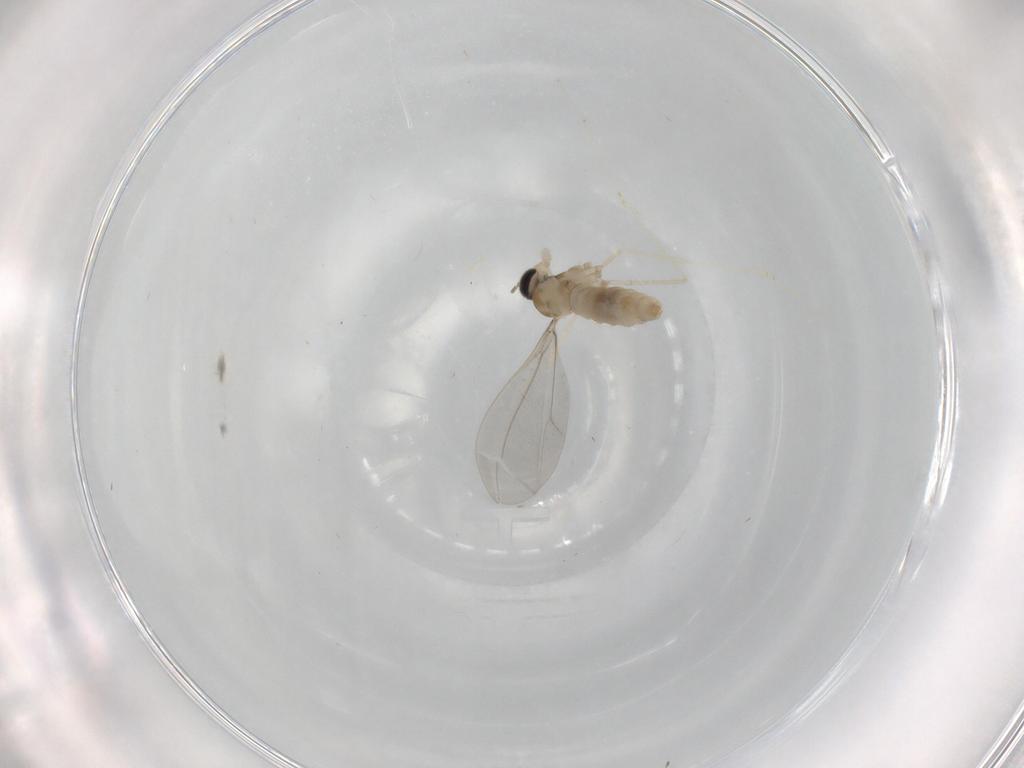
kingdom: Animalia
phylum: Arthropoda
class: Insecta
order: Diptera
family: Cecidomyiidae
